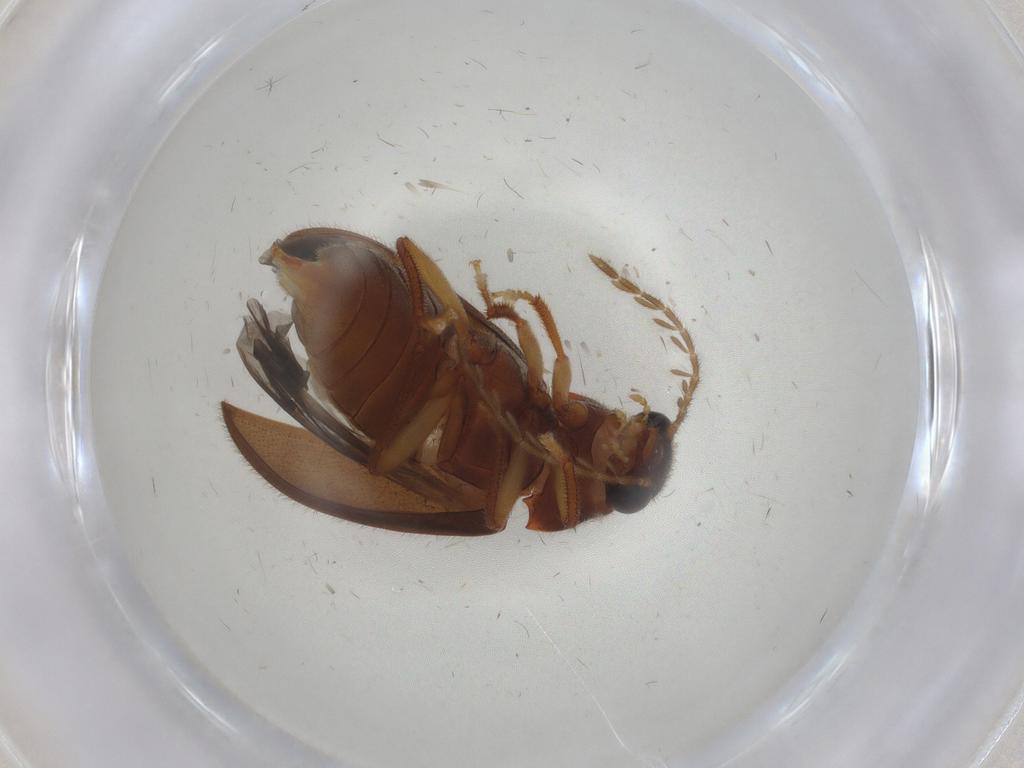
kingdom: Animalia
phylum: Arthropoda
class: Insecta
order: Coleoptera
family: Ptilodactylidae
